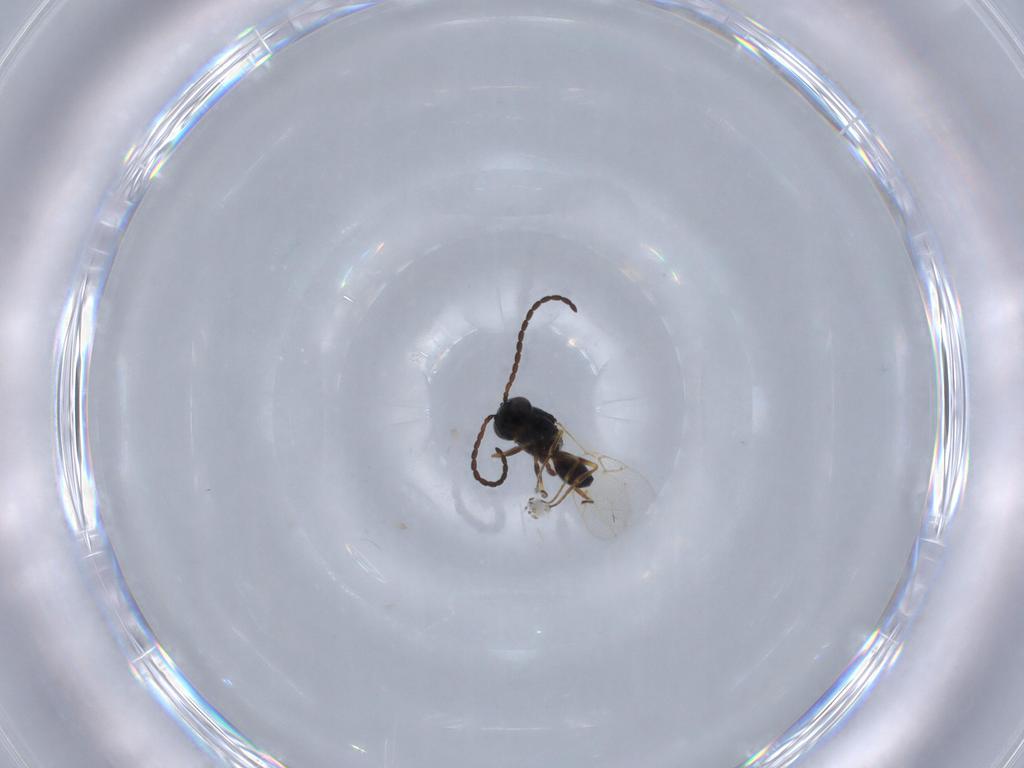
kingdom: Animalia
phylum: Arthropoda
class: Insecta
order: Hymenoptera
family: Figitidae
